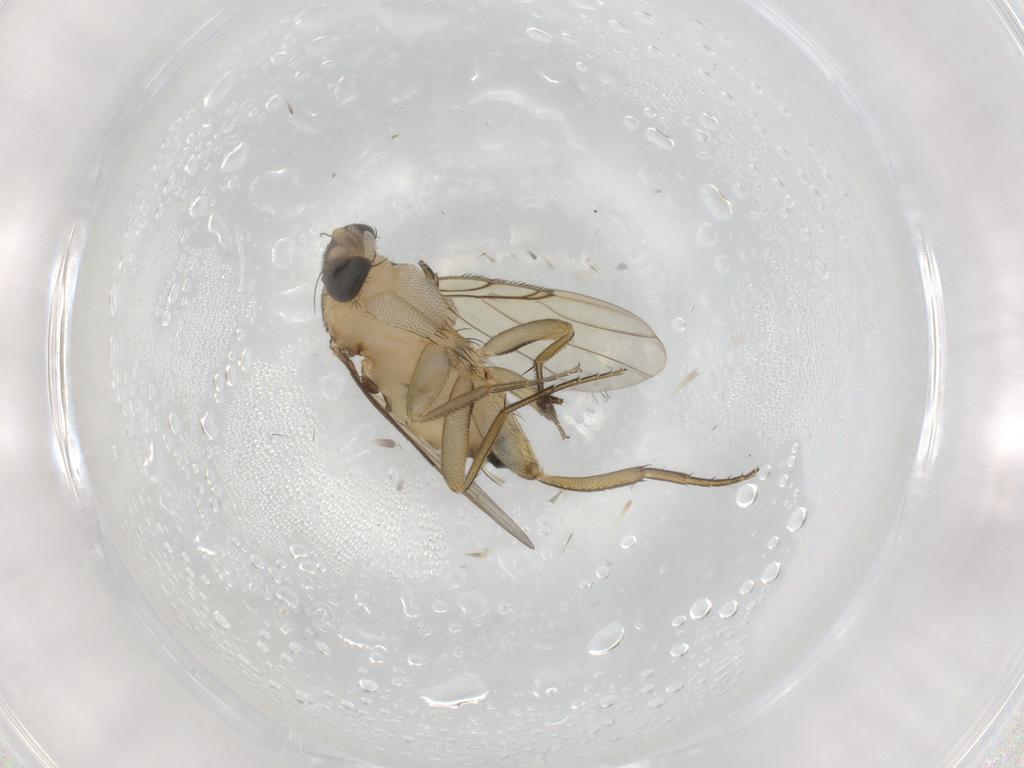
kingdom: Animalia
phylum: Arthropoda
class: Insecta
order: Diptera
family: Phoridae
